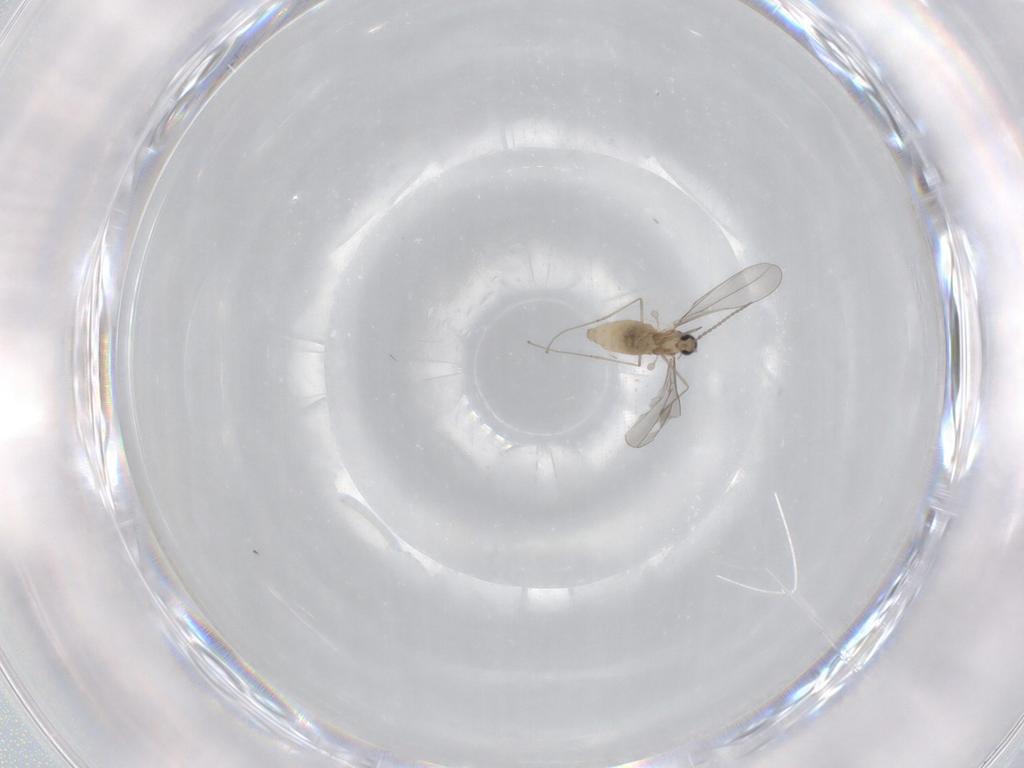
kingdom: Animalia
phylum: Arthropoda
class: Insecta
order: Diptera
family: Cecidomyiidae
